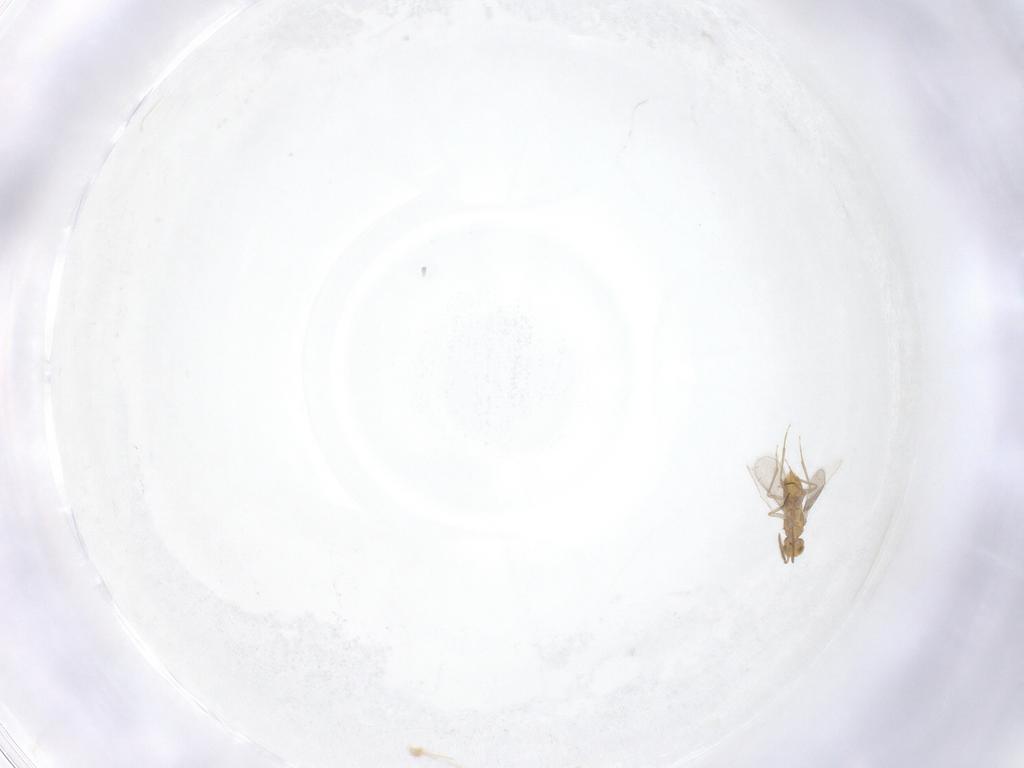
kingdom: Animalia
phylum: Arthropoda
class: Insecta
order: Hymenoptera
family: Aphelinidae
